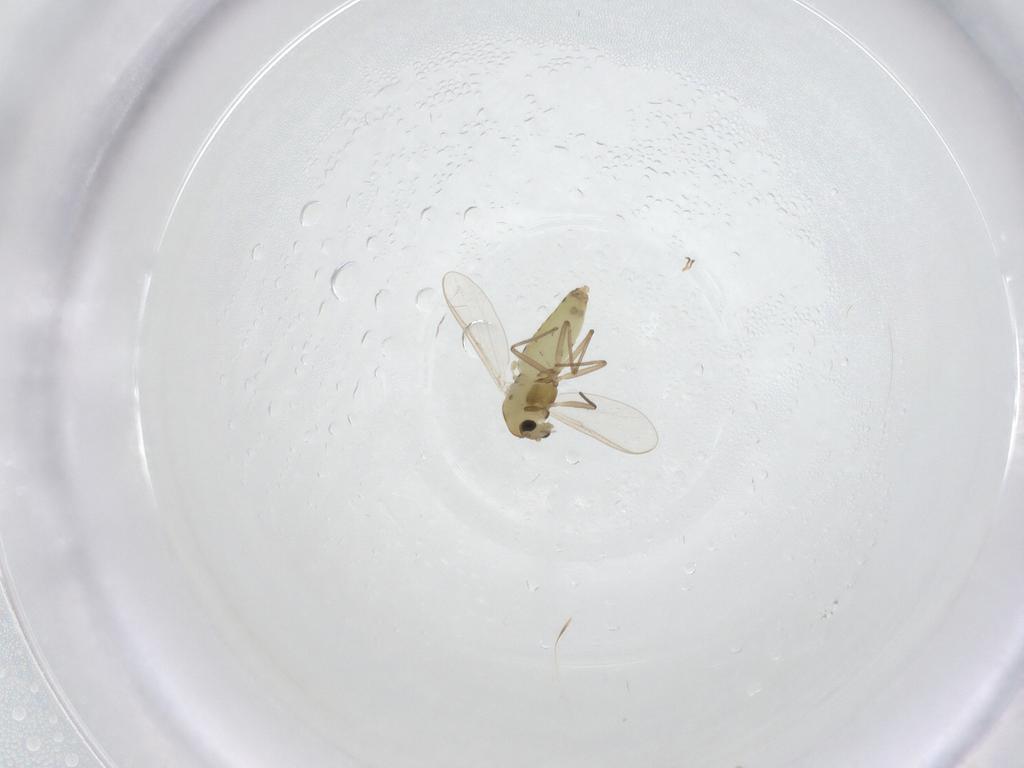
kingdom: Animalia
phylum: Arthropoda
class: Insecta
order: Diptera
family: Chironomidae
